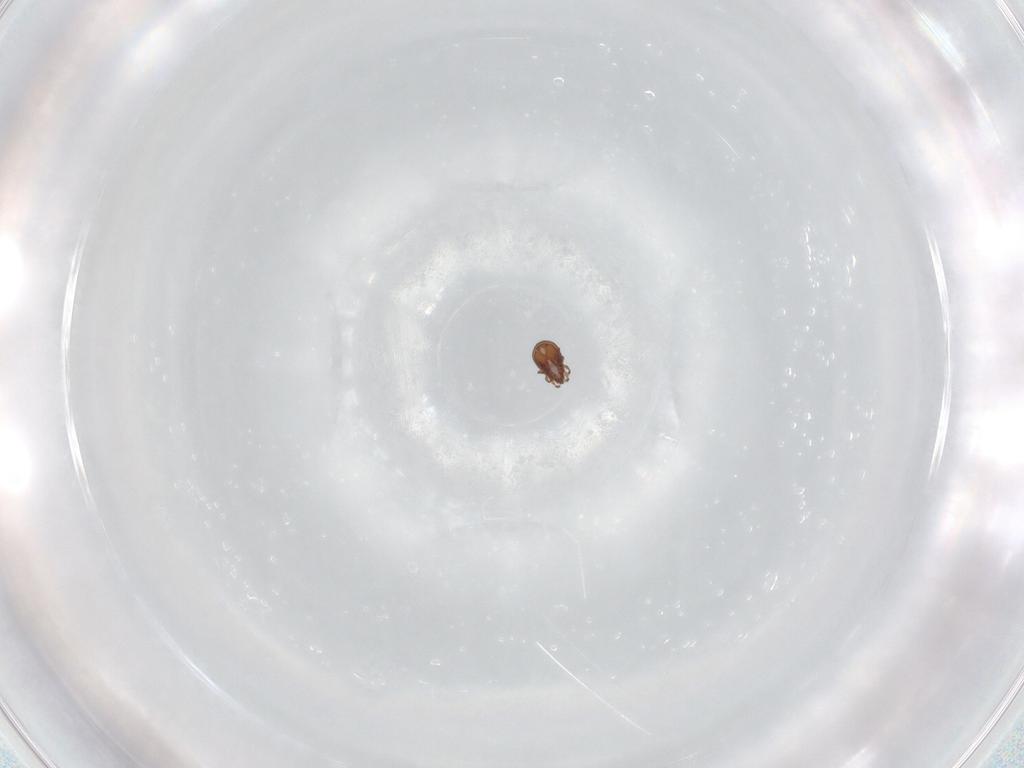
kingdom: Animalia
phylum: Arthropoda
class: Arachnida
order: Sarcoptiformes
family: Tectocepheidae
